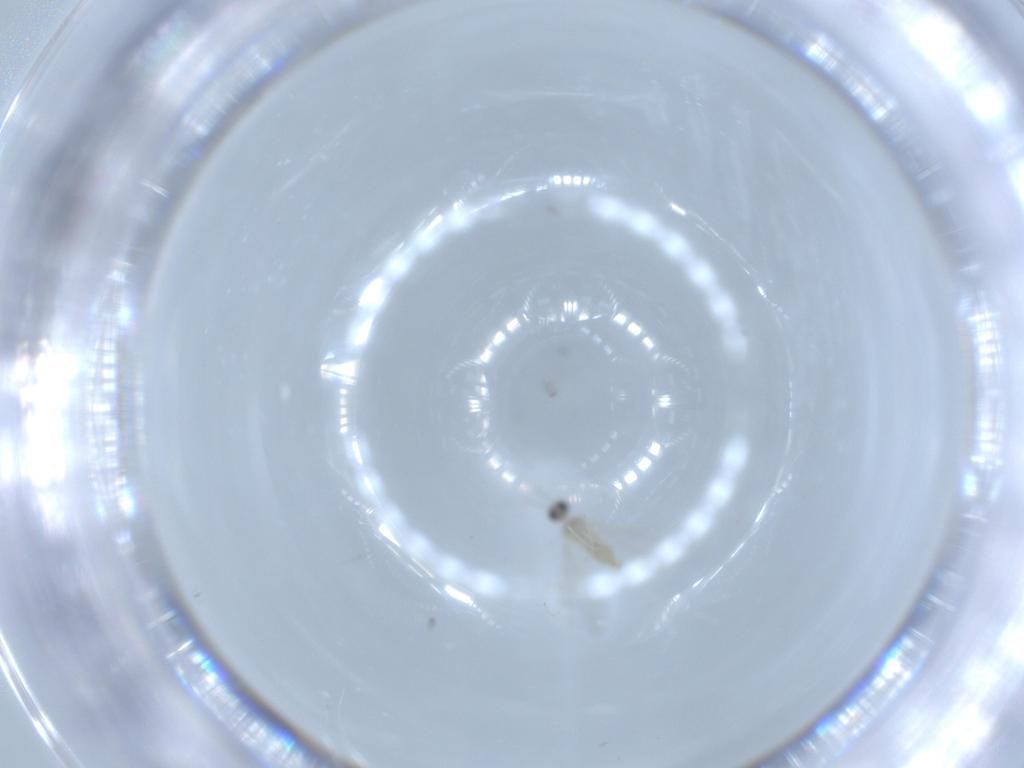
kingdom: Animalia
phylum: Arthropoda
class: Insecta
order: Diptera
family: Cecidomyiidae
